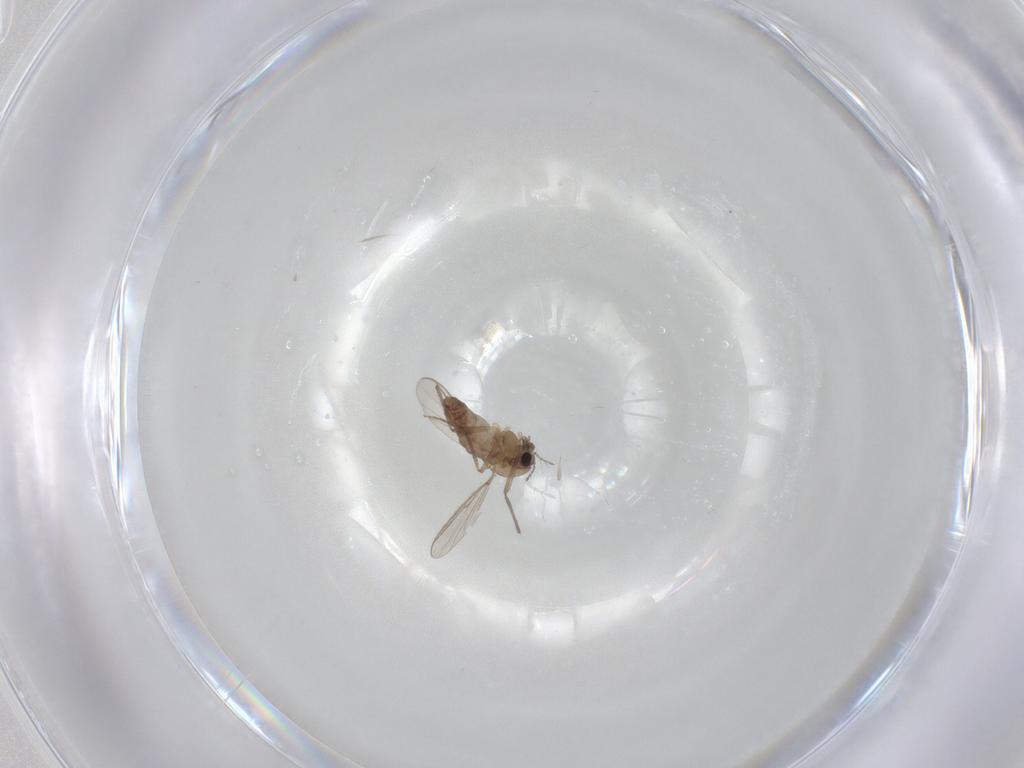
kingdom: Animalia
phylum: Arthropoda
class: Insecta
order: Diptera
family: Chironomidae
